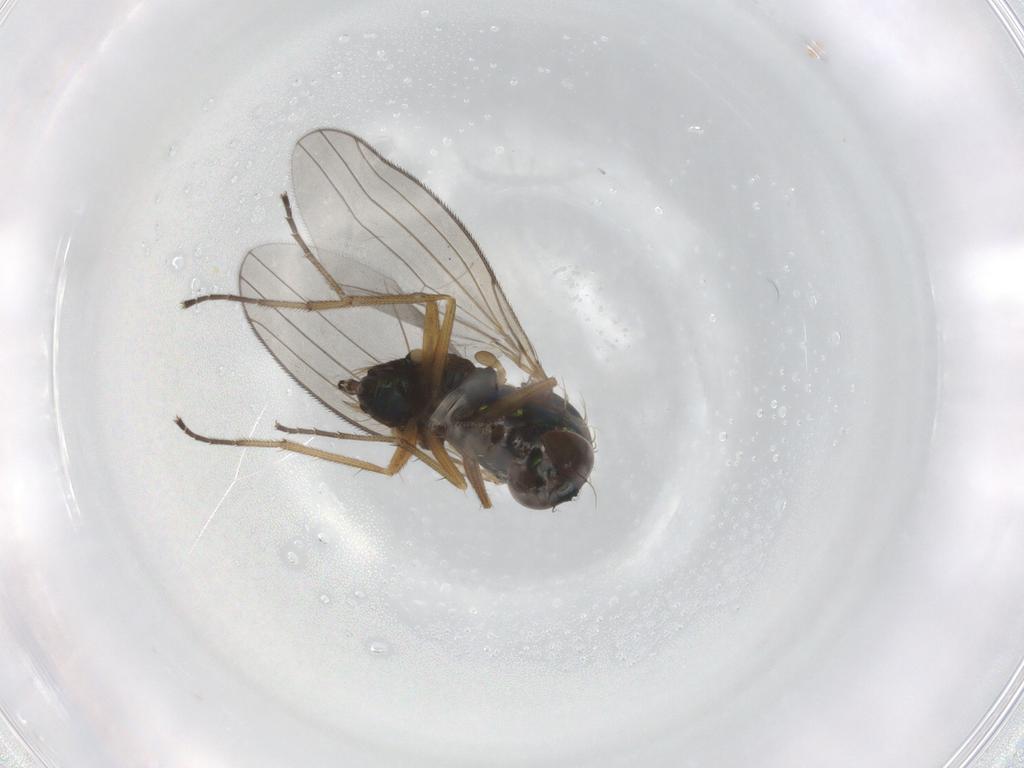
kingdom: Animalia
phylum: Arthropoda
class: Insecta
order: Diptera
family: Dolichopodidae
